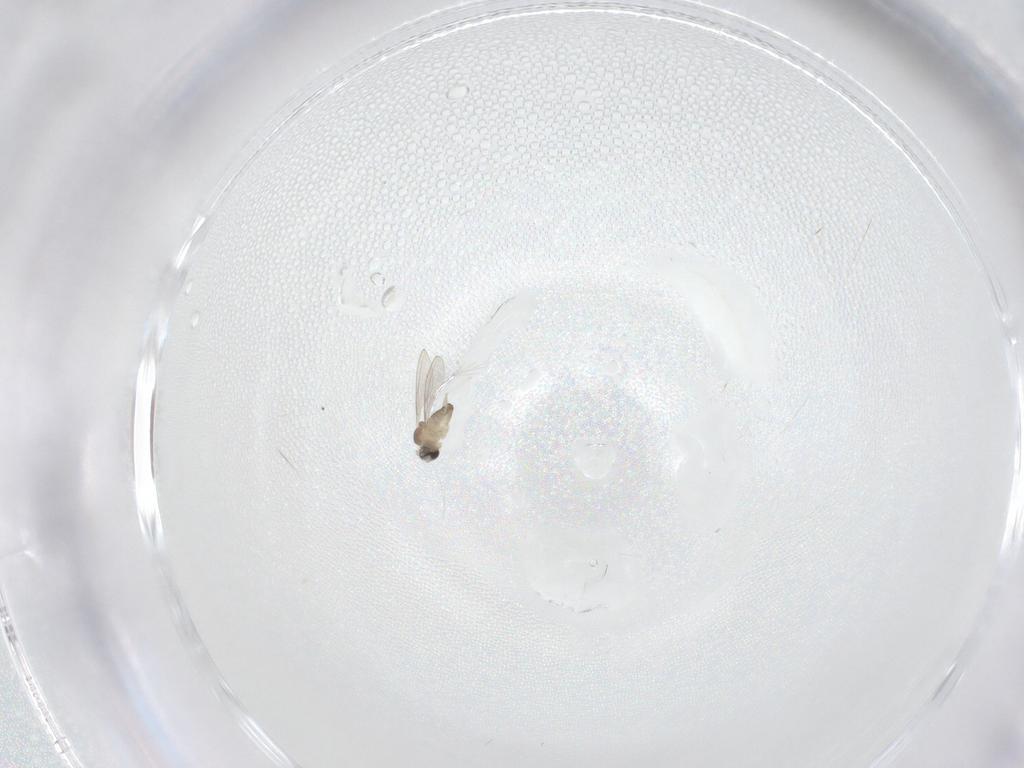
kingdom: Animalia
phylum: Arthropoda
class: Insecta
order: Diptera
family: Cecidomyiidae
